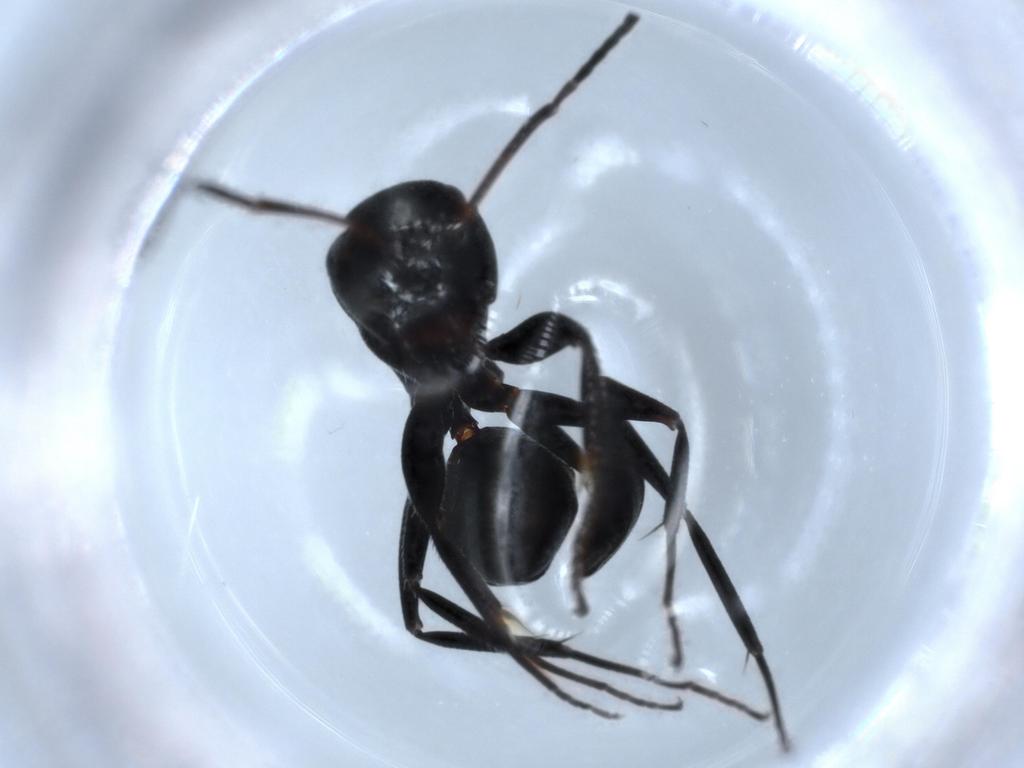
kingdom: Animalia
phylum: Arthropoda
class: Insecta
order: Hymenoptera
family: Formicidae
